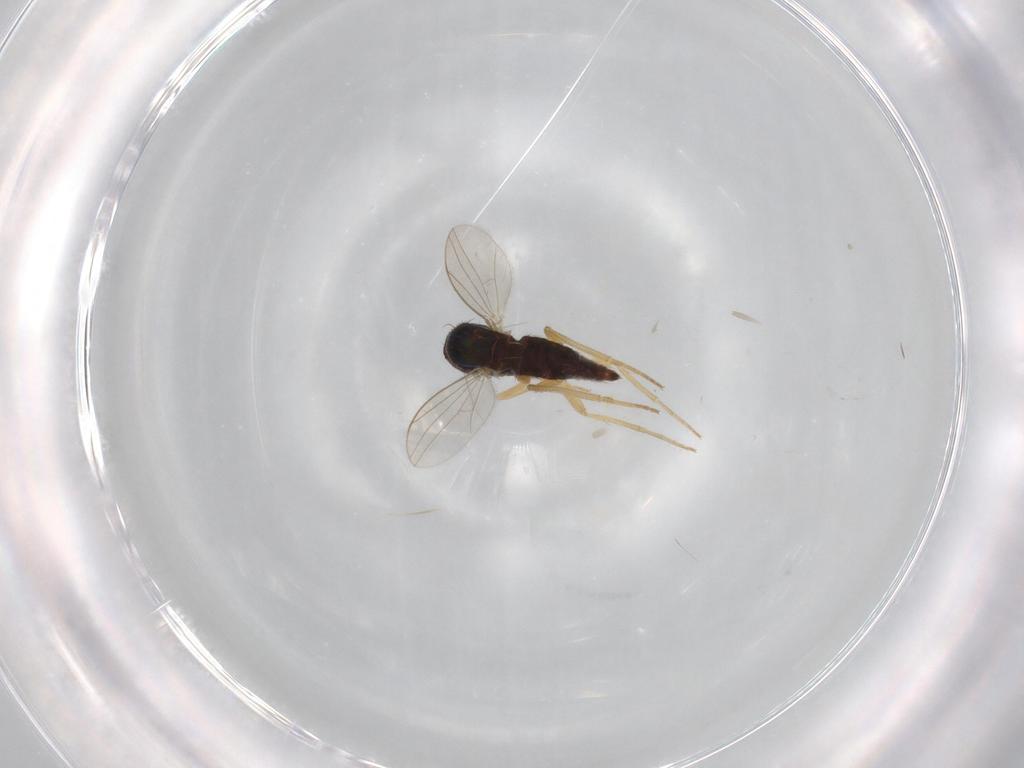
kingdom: Animalia
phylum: Arthropoda
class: Insecta
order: Diptera
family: Dolichopodidae
